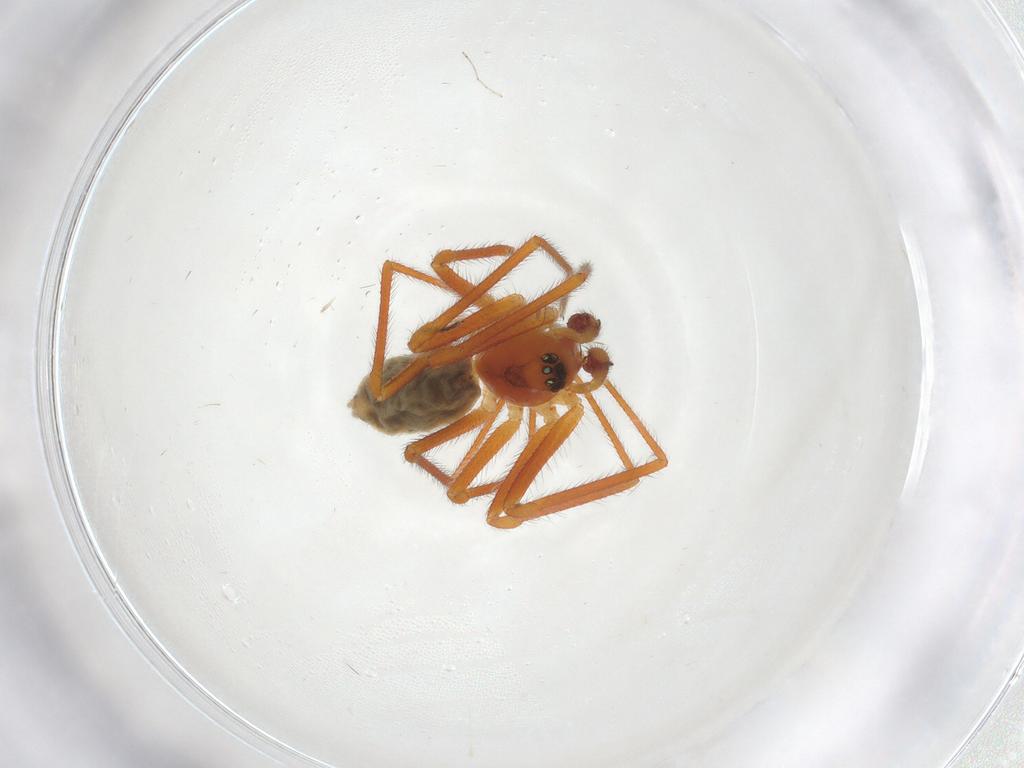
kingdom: Animalia
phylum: Arthropoda
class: Arachnida
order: Araneae
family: Linyphiidae
